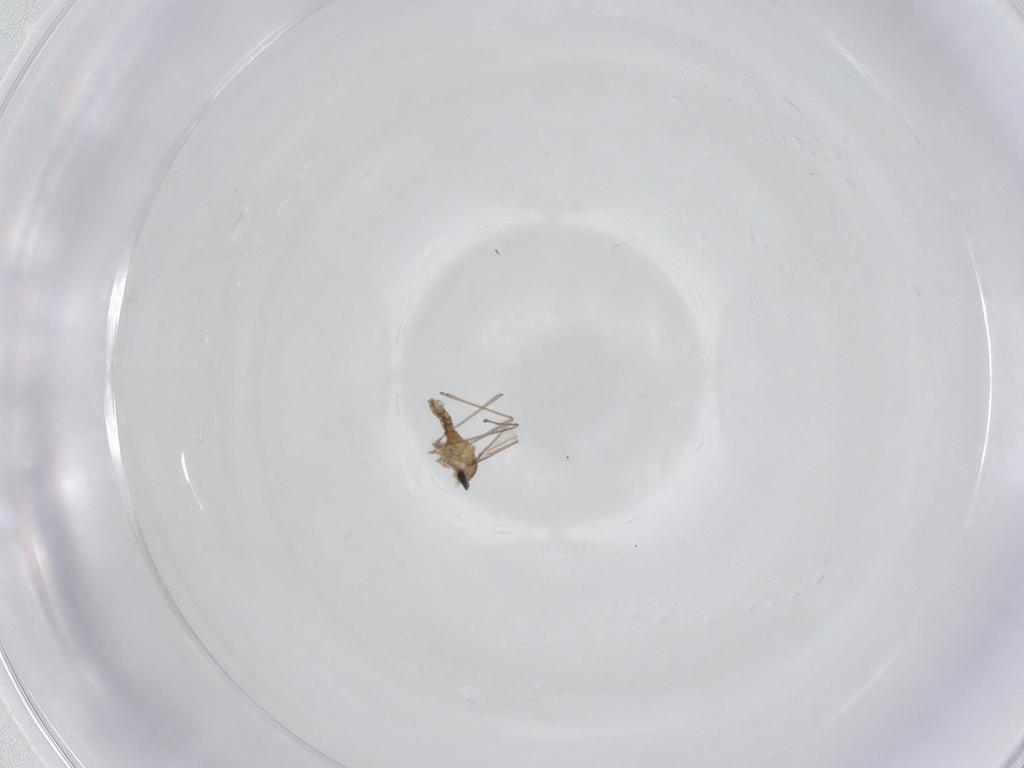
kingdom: Animalia
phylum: Arthropoda
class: Insecta
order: Diptera
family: Cecidomyiidae
